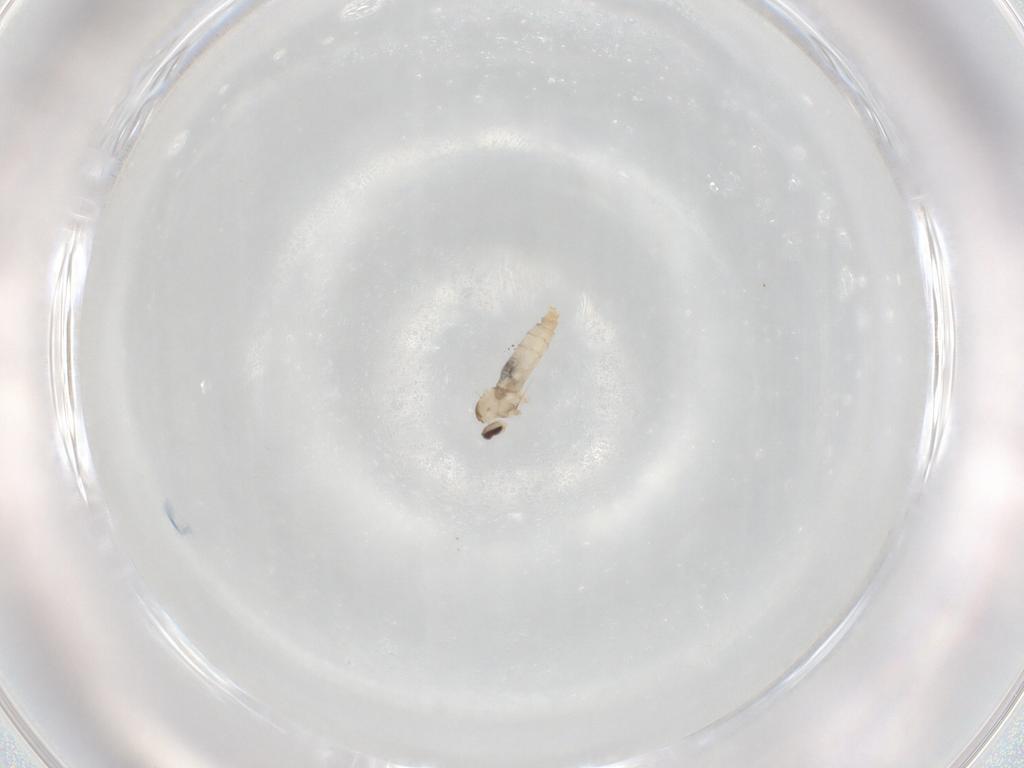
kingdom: Animalia
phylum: Arthropoda
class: Insecta
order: Diptera
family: Cecidomyiidae
